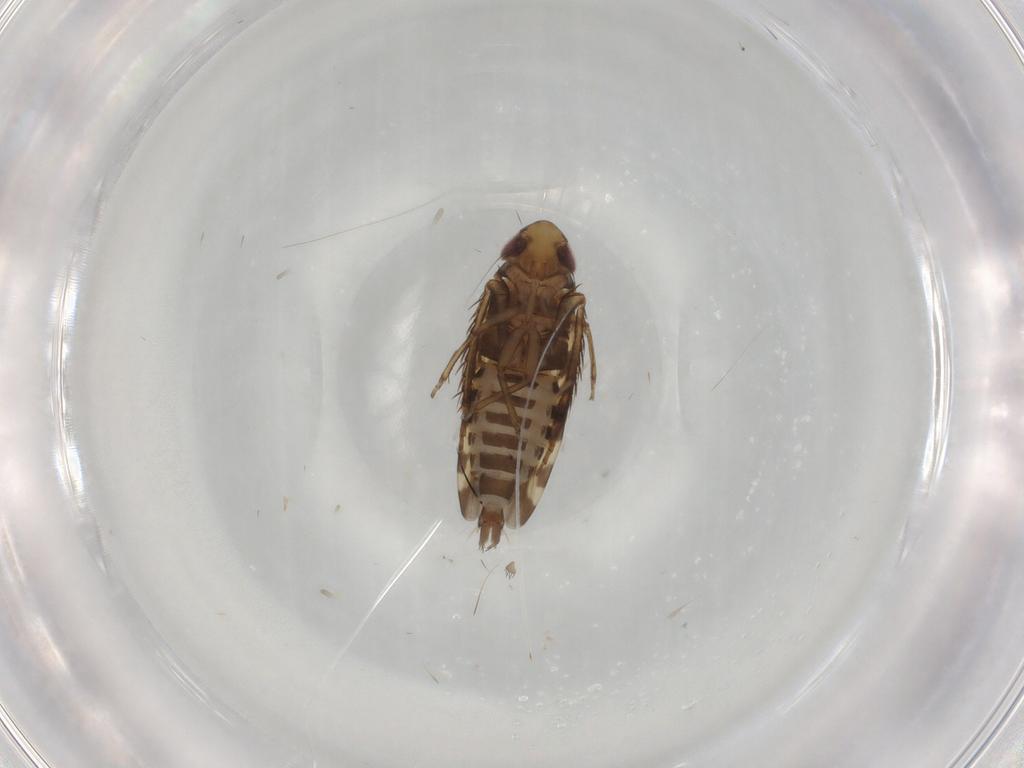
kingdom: Animalia
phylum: Arthropoda
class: Insecta
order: Hemiptera
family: Cicadellidae
